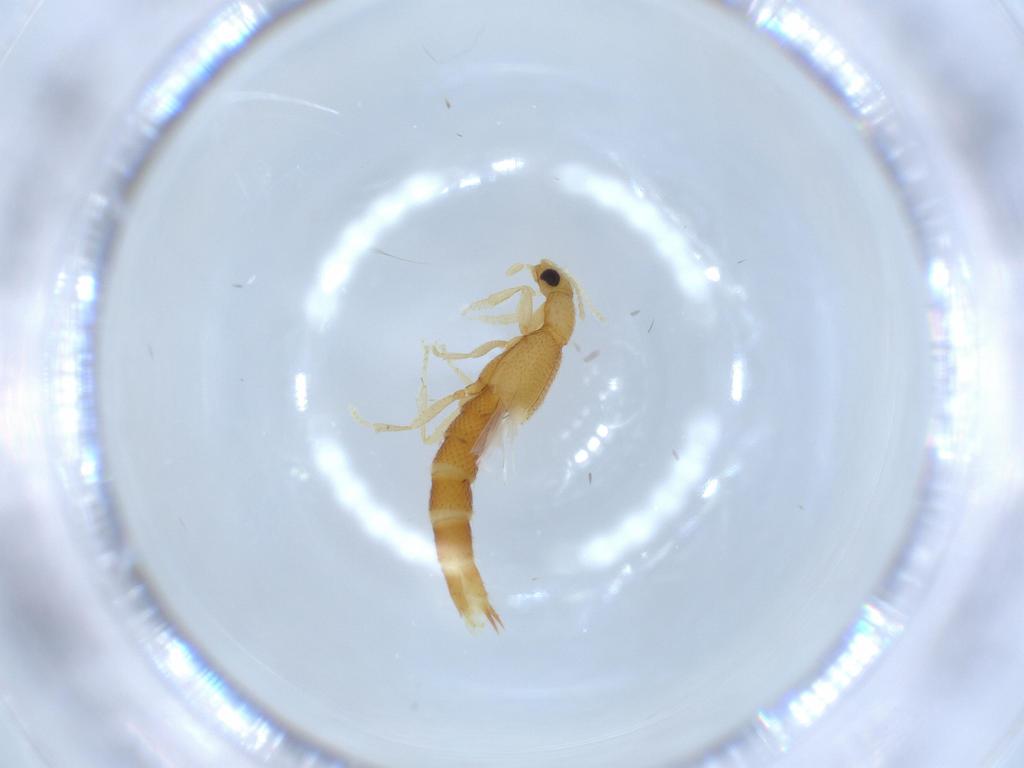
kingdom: Animalia
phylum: Arthropoda
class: Insecta
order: Coleoptera
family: Staphylinidae
